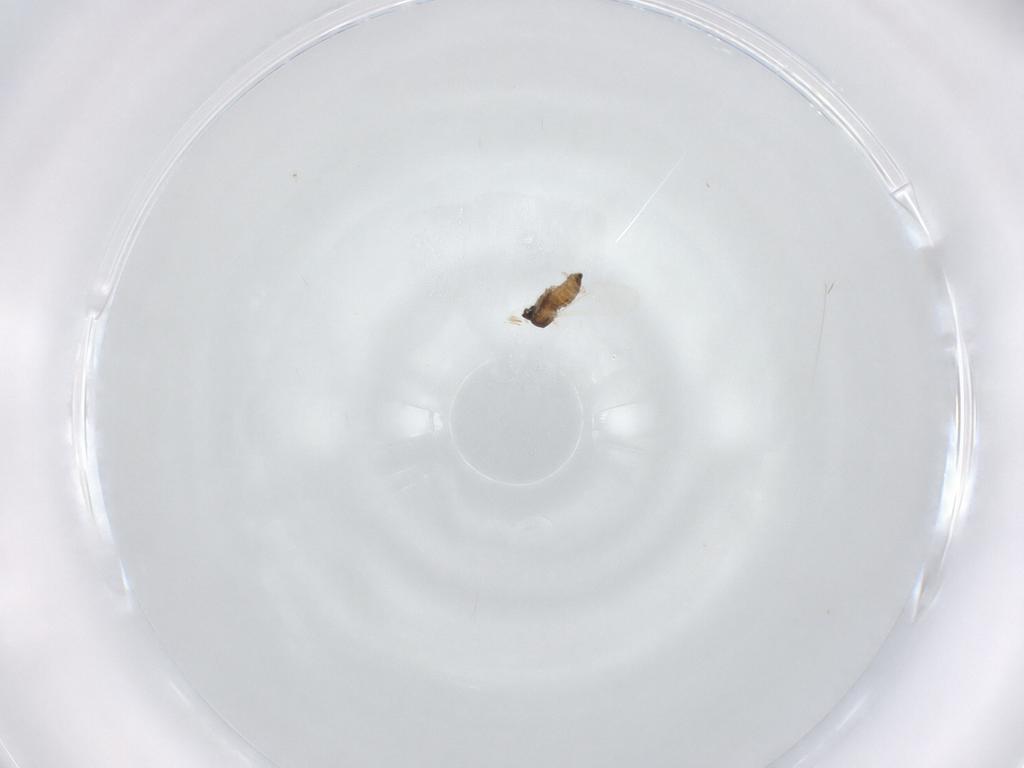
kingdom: Animalia
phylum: Arthropoda
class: Insecta
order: Diptera
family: Cecidomyiidae
